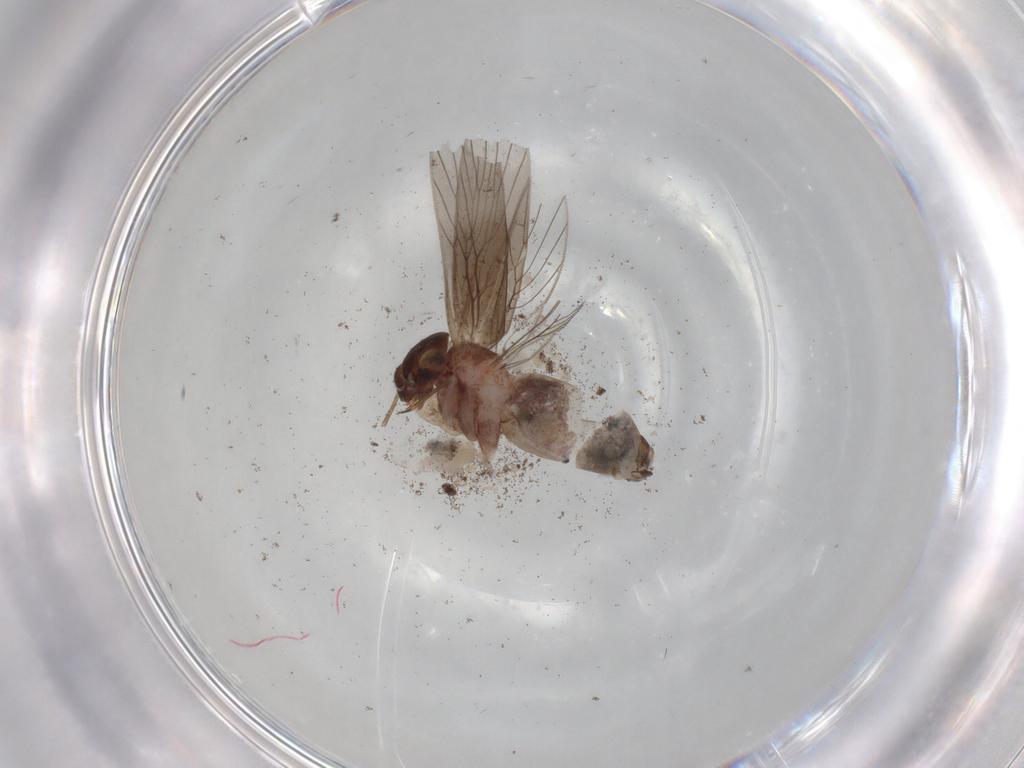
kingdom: Animalia
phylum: Arthropoda
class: Insecta
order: Psocodea
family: Lepidopsocidae
